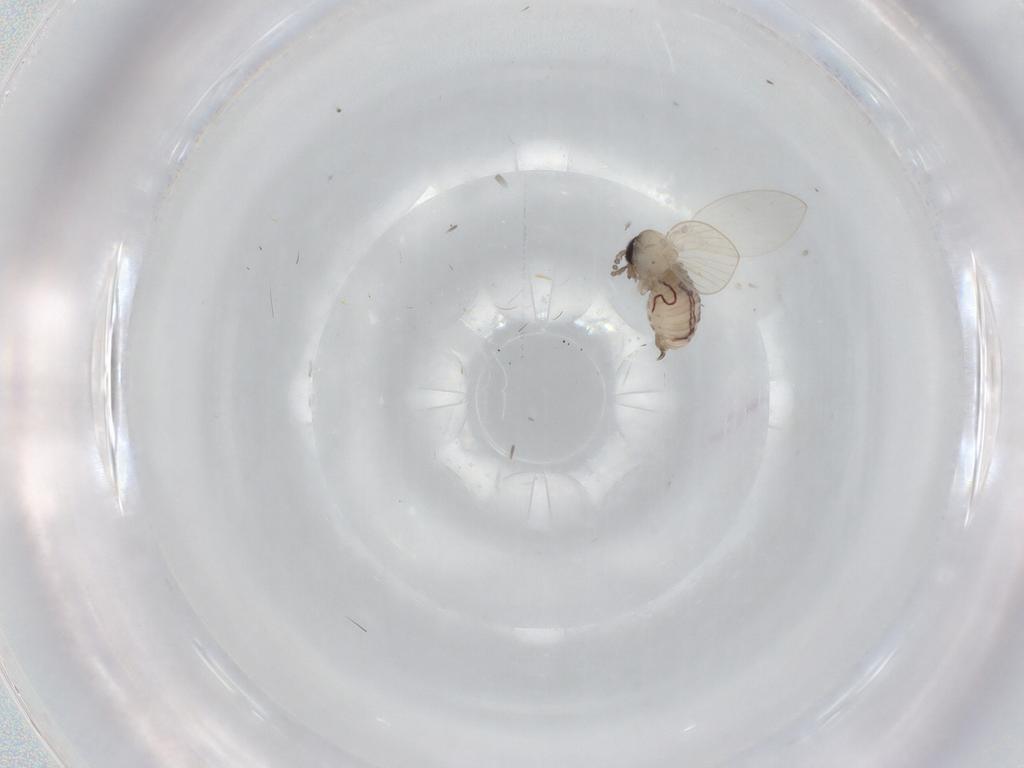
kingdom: Animalia
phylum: Arthropoda
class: Insecta
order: Diptera
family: Psychodidae
